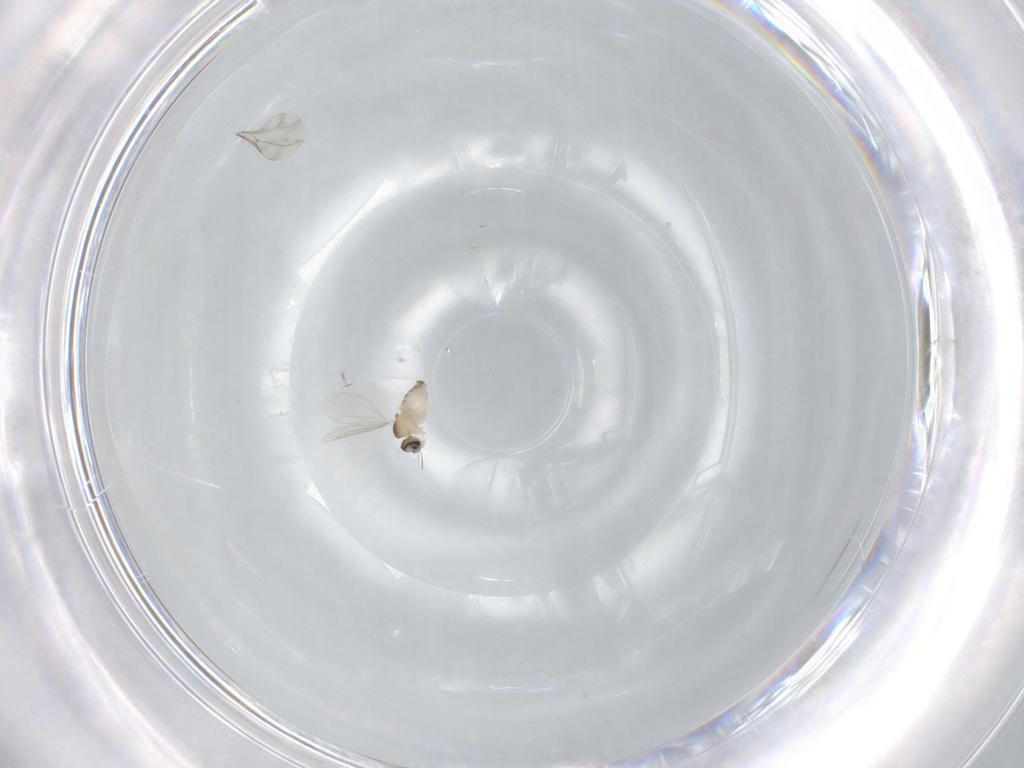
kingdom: Animalia
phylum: Arthropoda
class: Insecta
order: Diptera
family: Cecidomyiidae
